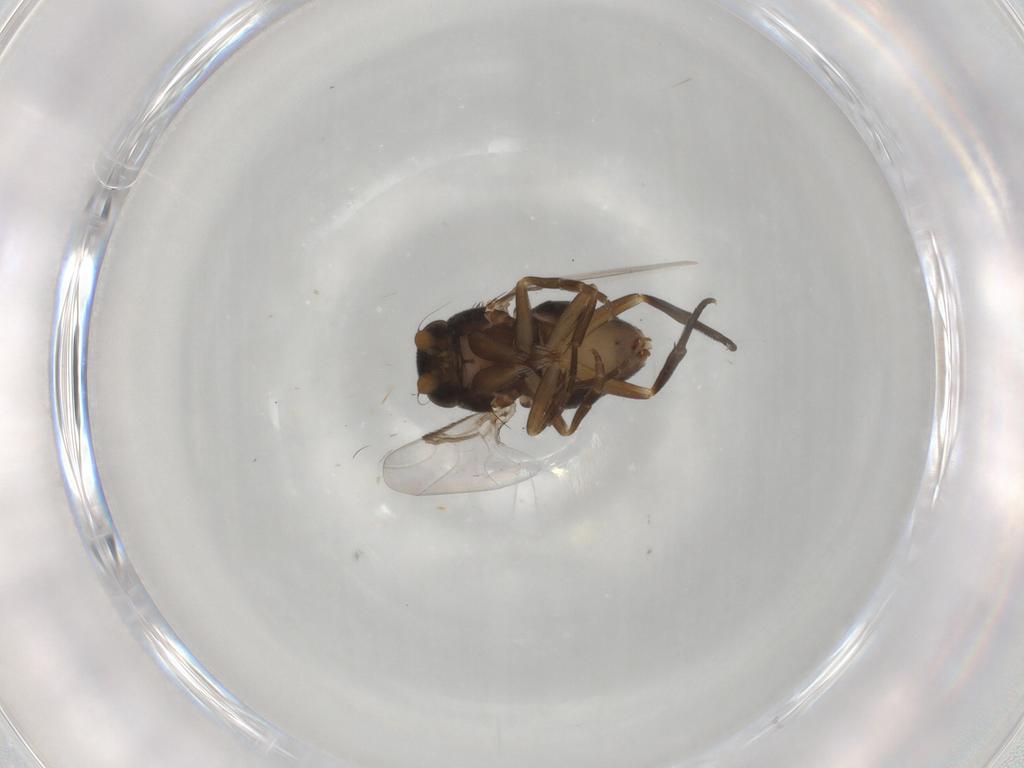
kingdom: Animalia
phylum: Arthropoda
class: Insecta
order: Diptera
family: Phoridae
